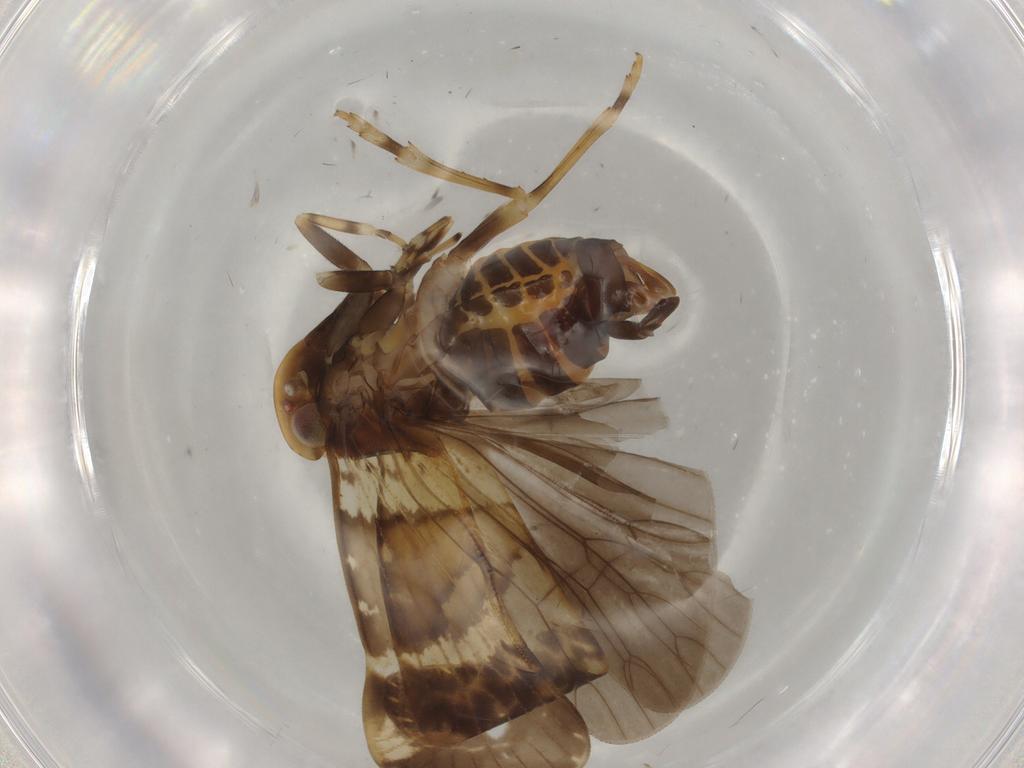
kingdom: Animalia
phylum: Arthropoda
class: Insecta
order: Hemiptera
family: Cixiidae
